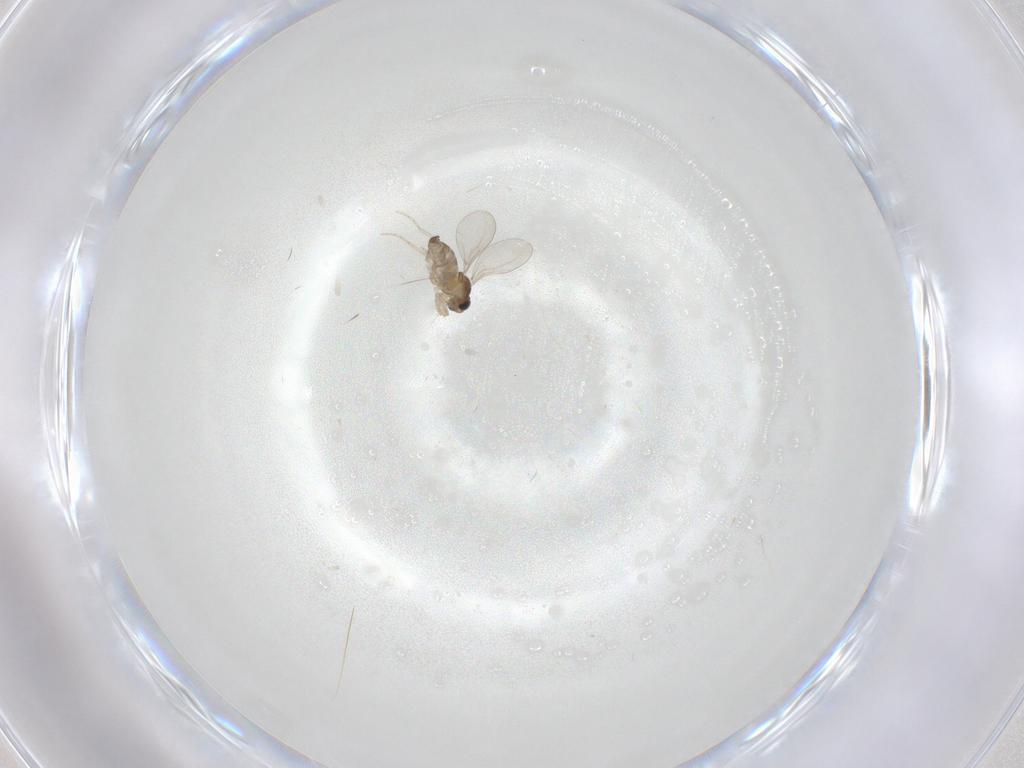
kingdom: Animalia
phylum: Arthropoda
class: Insecta
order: Diptera
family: Cecidomyiidae
